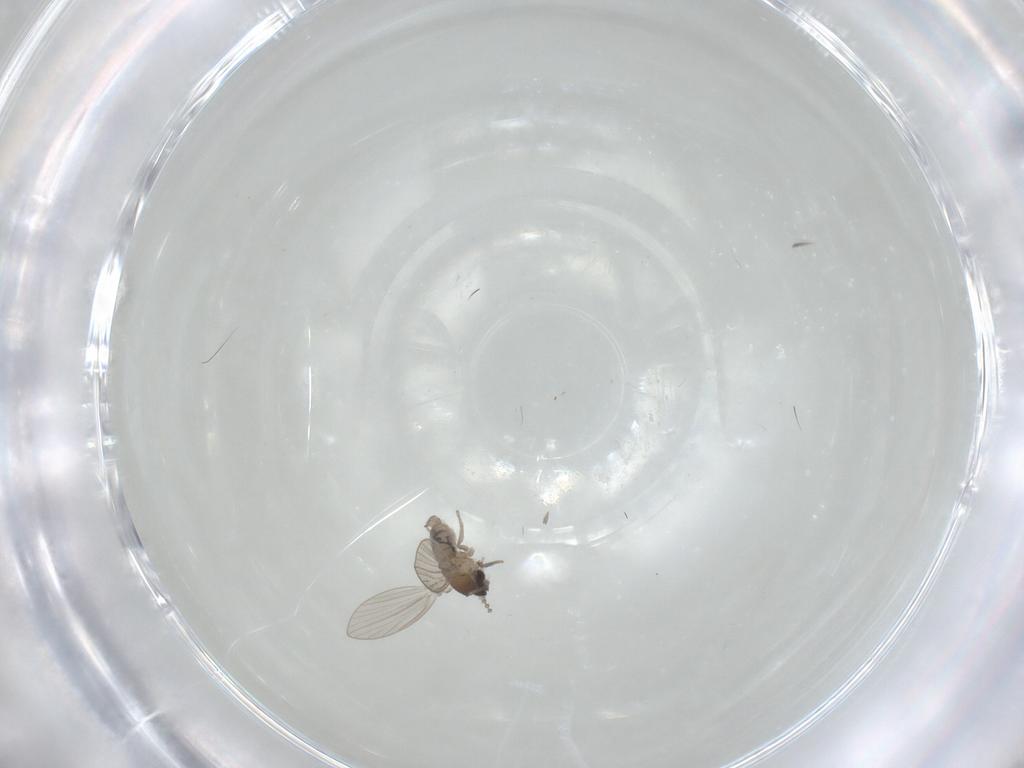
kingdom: Animalia
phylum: Arthropoda
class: Insecta
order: Diptera
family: Psychodidae
